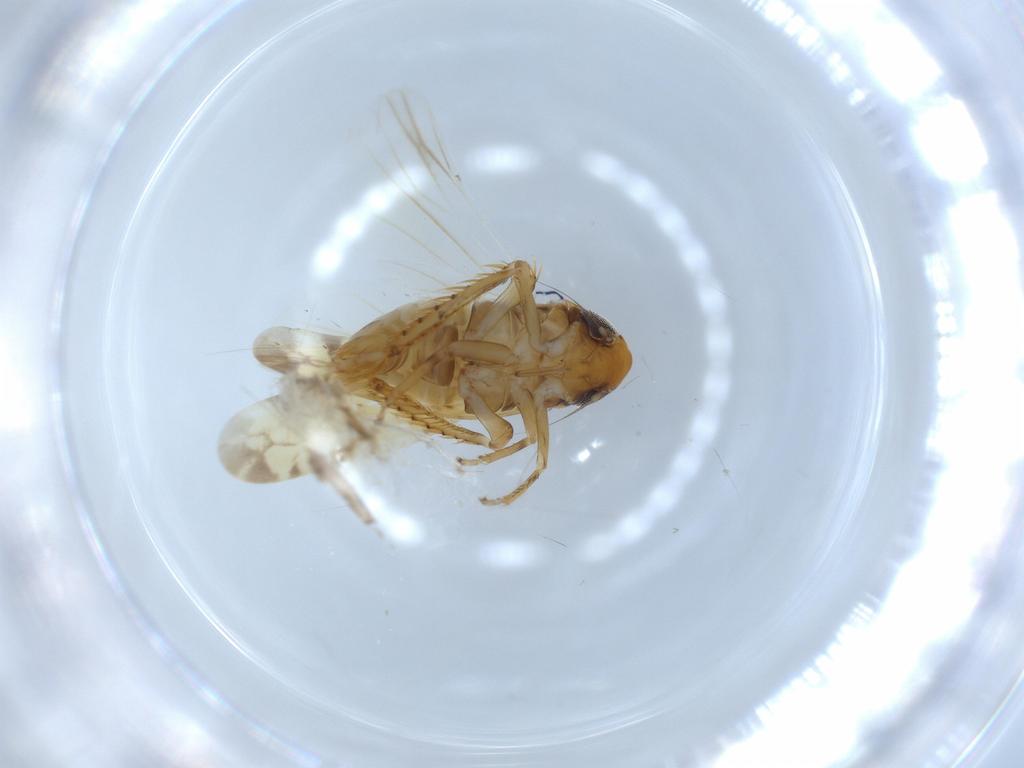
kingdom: Animalia
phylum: Arthropoda
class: Insecta
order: Hemiptera
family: Cicadellidae
